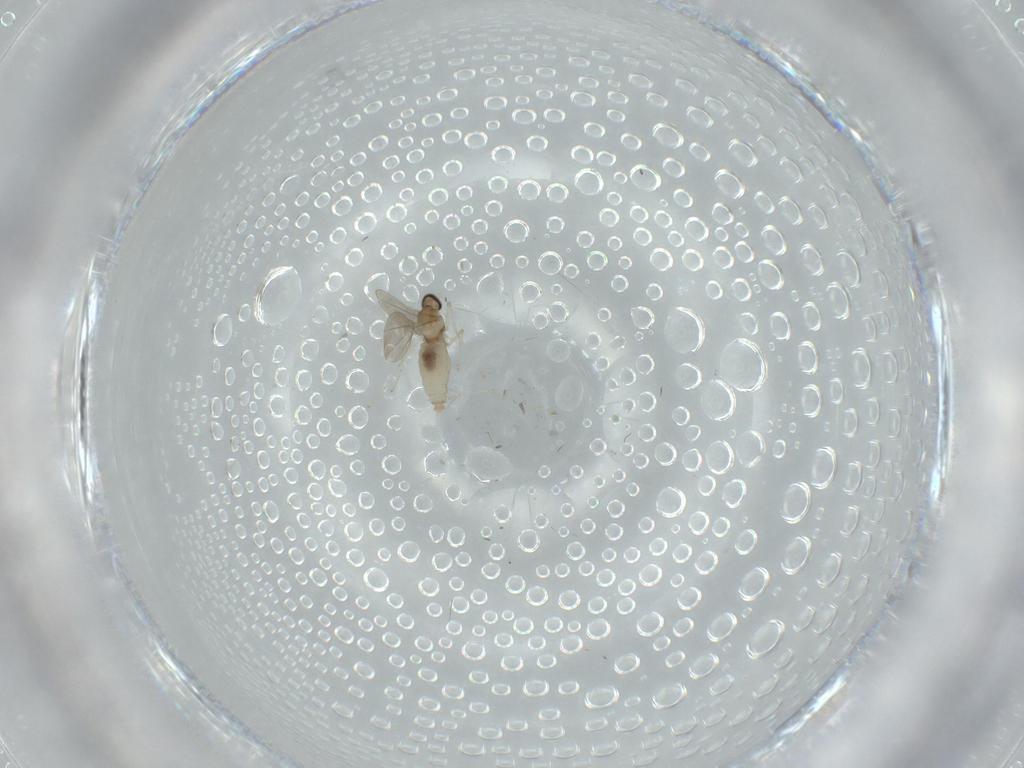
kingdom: Animalia
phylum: Arthropoda
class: Insecta
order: Diptera
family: Cecidomyiidae
